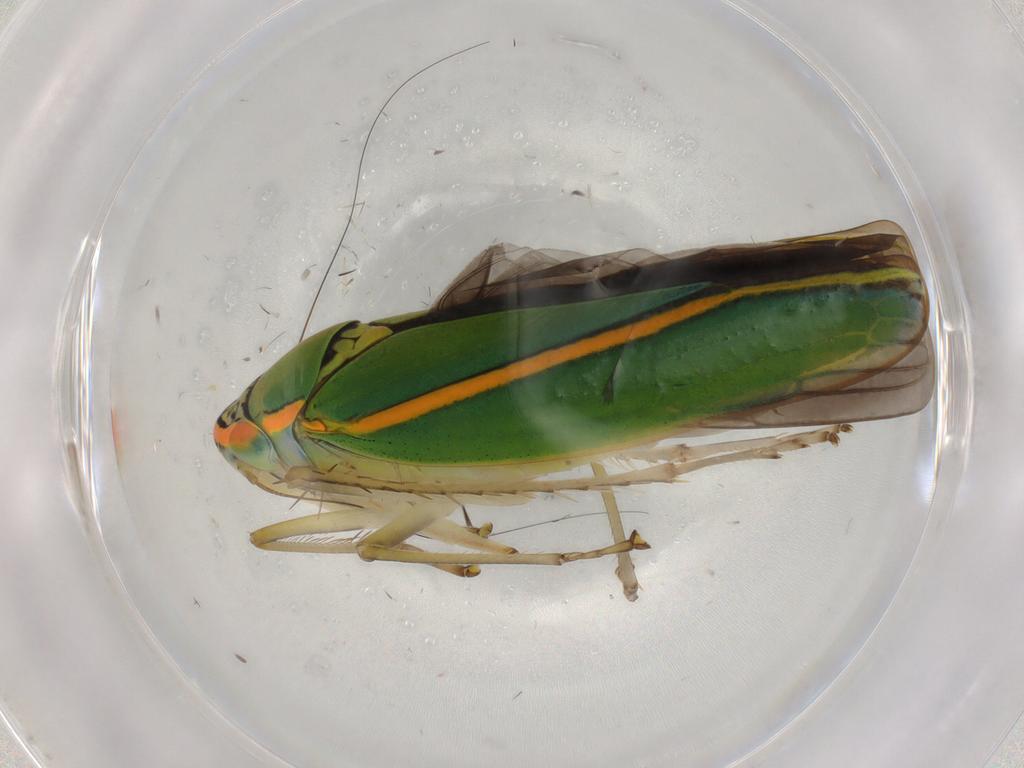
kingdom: Animalia
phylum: Arthropoda
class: Insecta
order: Hemiptera
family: Cicadellidae
